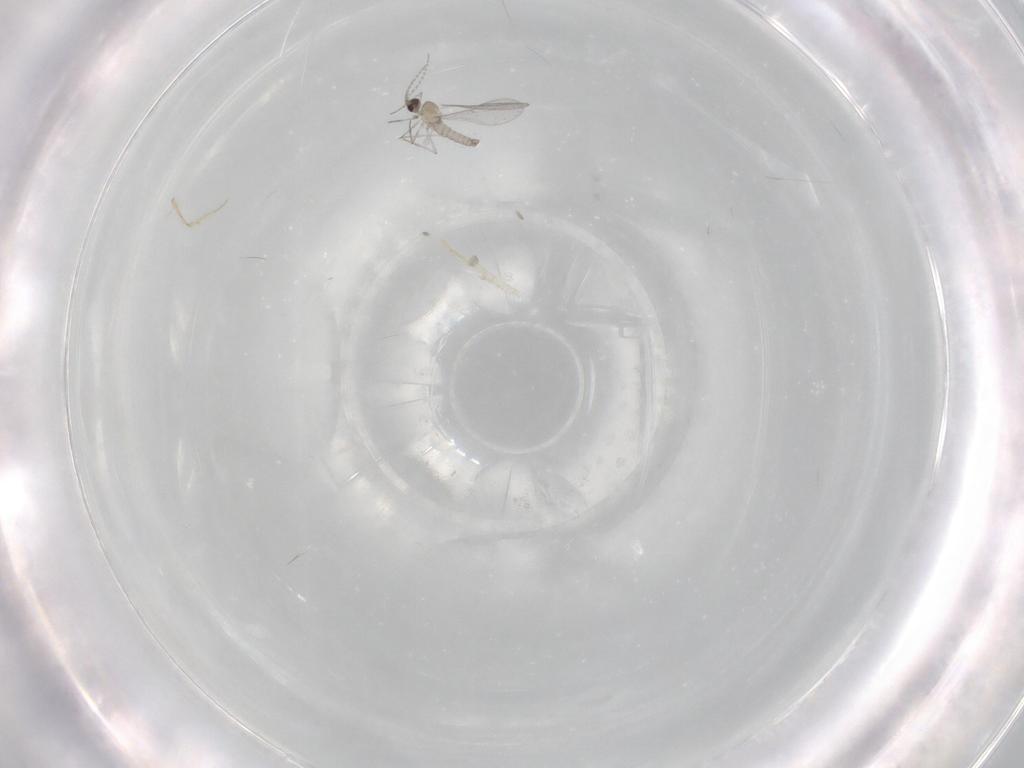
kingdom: Animalia
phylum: Arthropoda
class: Insecta
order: Diptera
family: Cecidomyiidae
